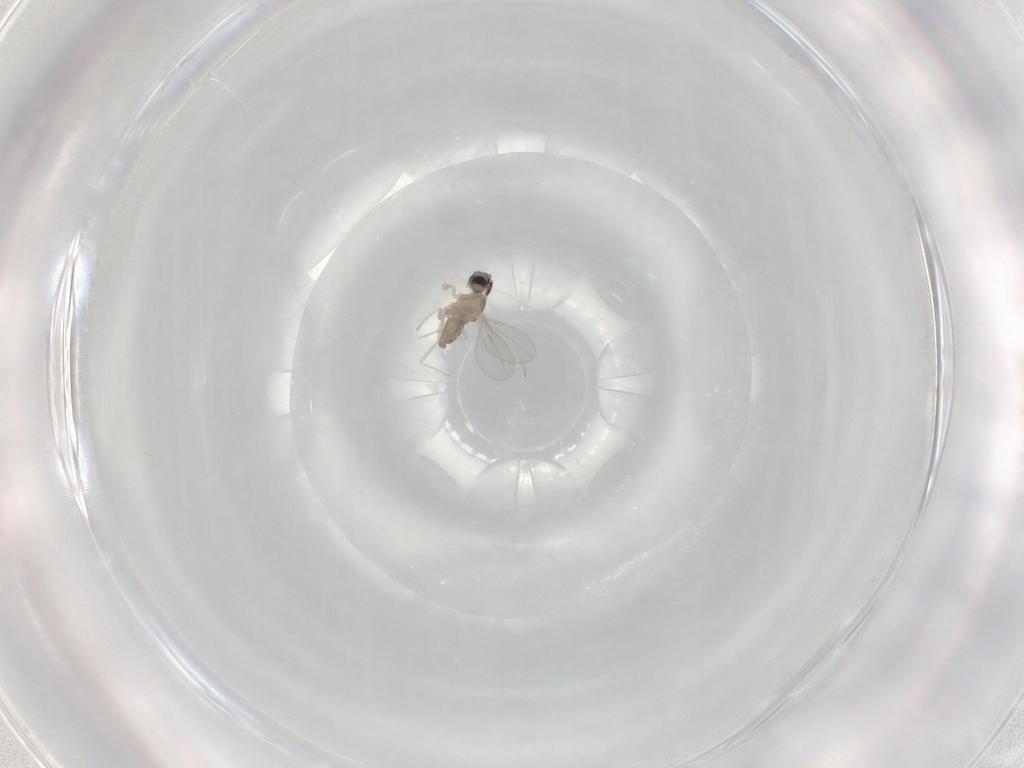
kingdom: Animalia
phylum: Arthropoda
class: Insecta
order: Diptera
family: Cecidomyiidae
